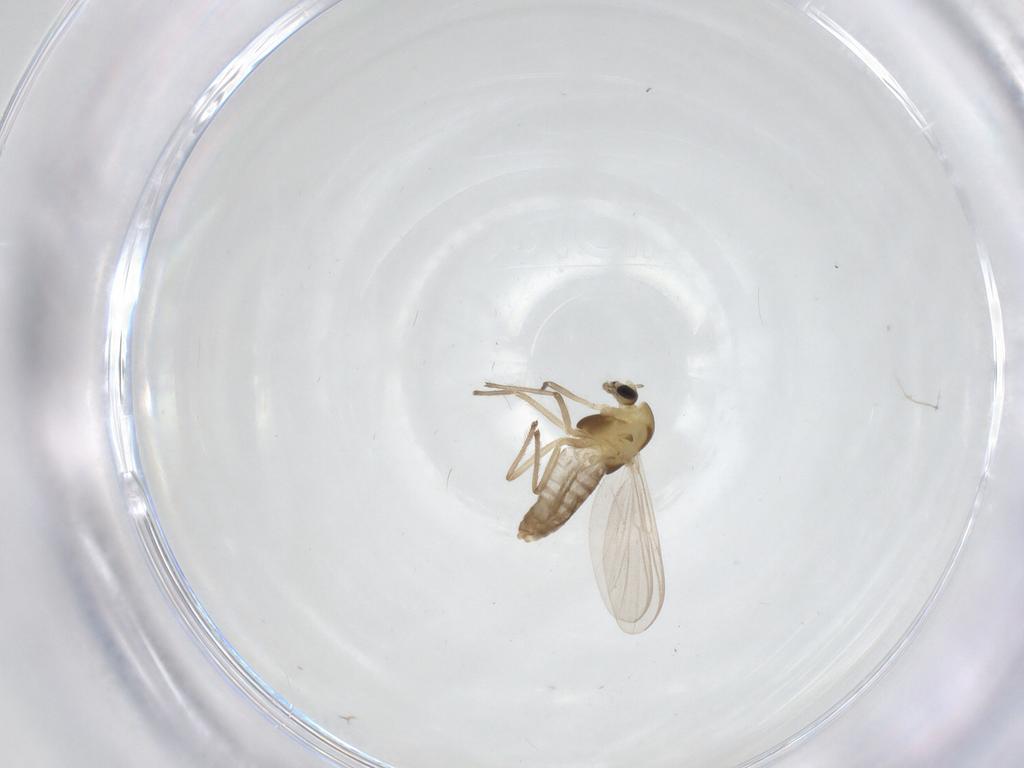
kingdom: Animalia
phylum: Arthropoda
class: Insecta
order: Diptera
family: Chironomidae
